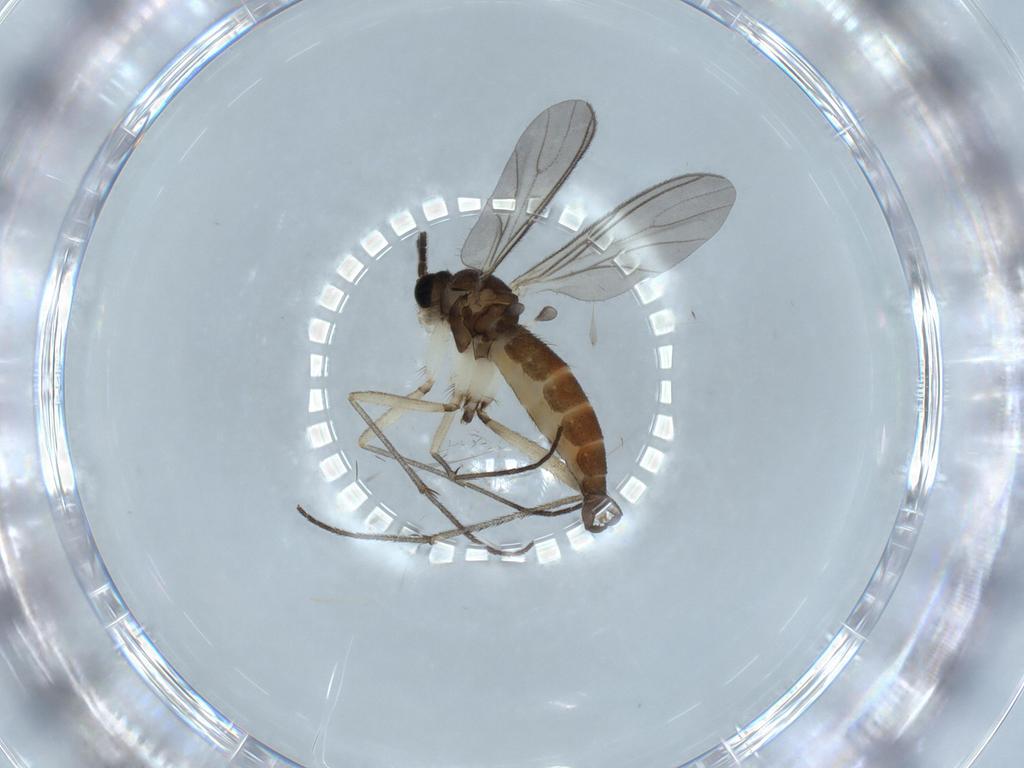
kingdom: Animalia
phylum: Arthropoda
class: Insecta
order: Diptera
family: Sciaridae
